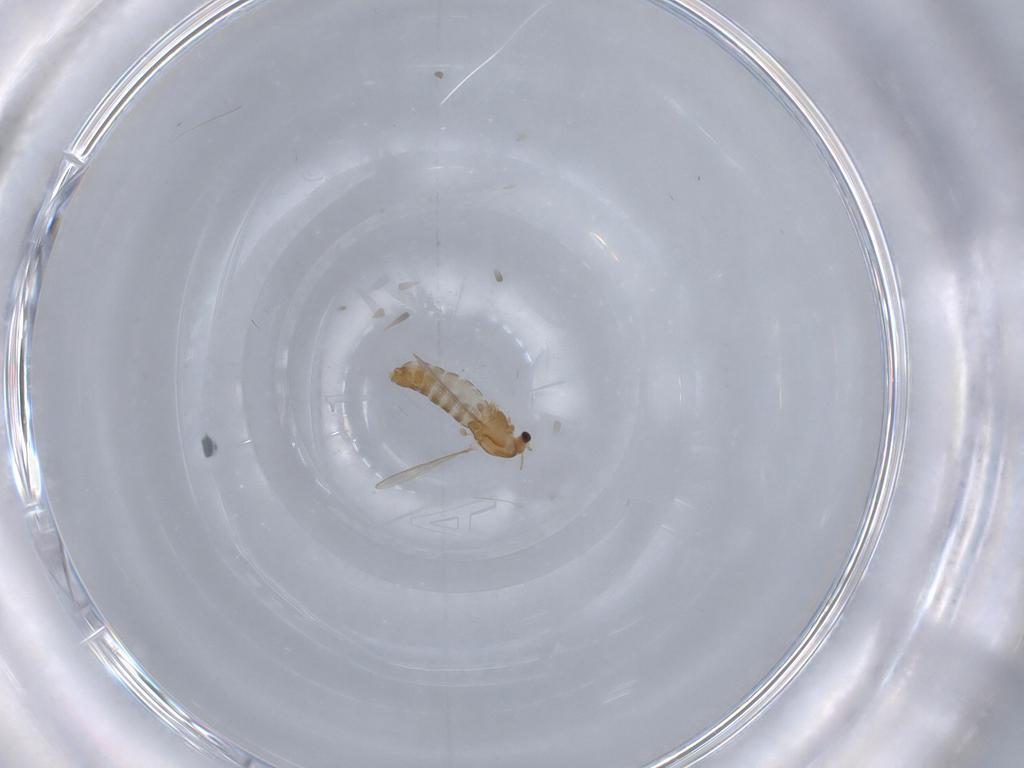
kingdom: Animalia
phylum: Arthropoda
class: Insecta
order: Diptera
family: Chironomidae
